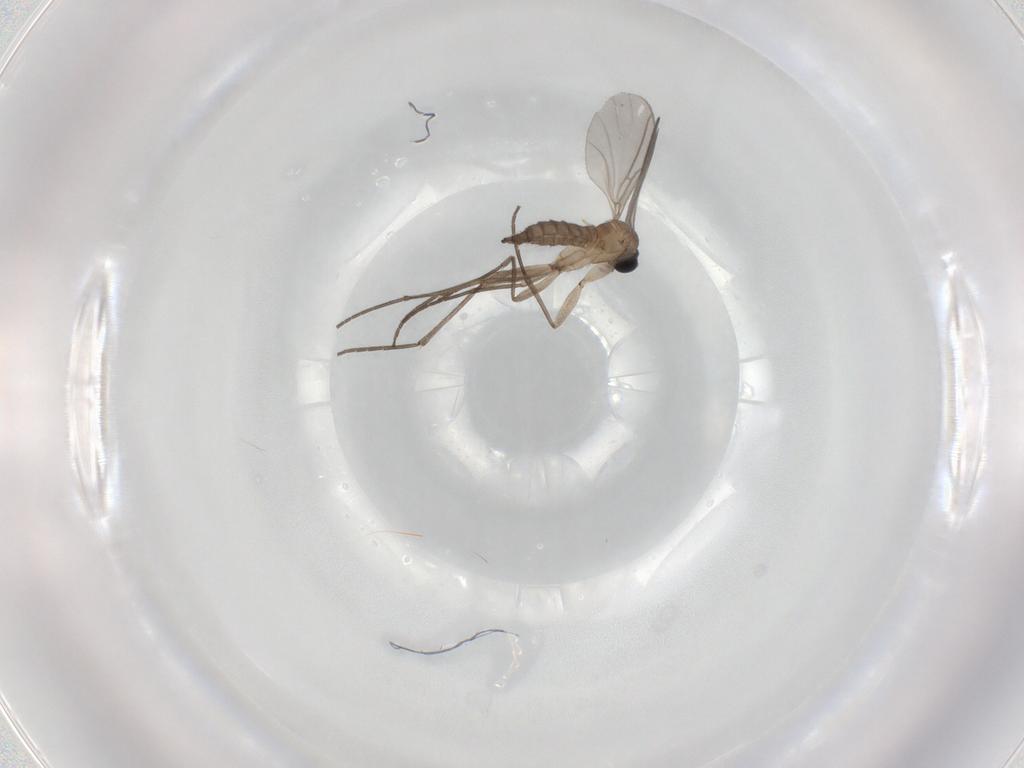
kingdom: Animalia
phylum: Arthropoda
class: Insecta
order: Diptera
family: Sciaridae
